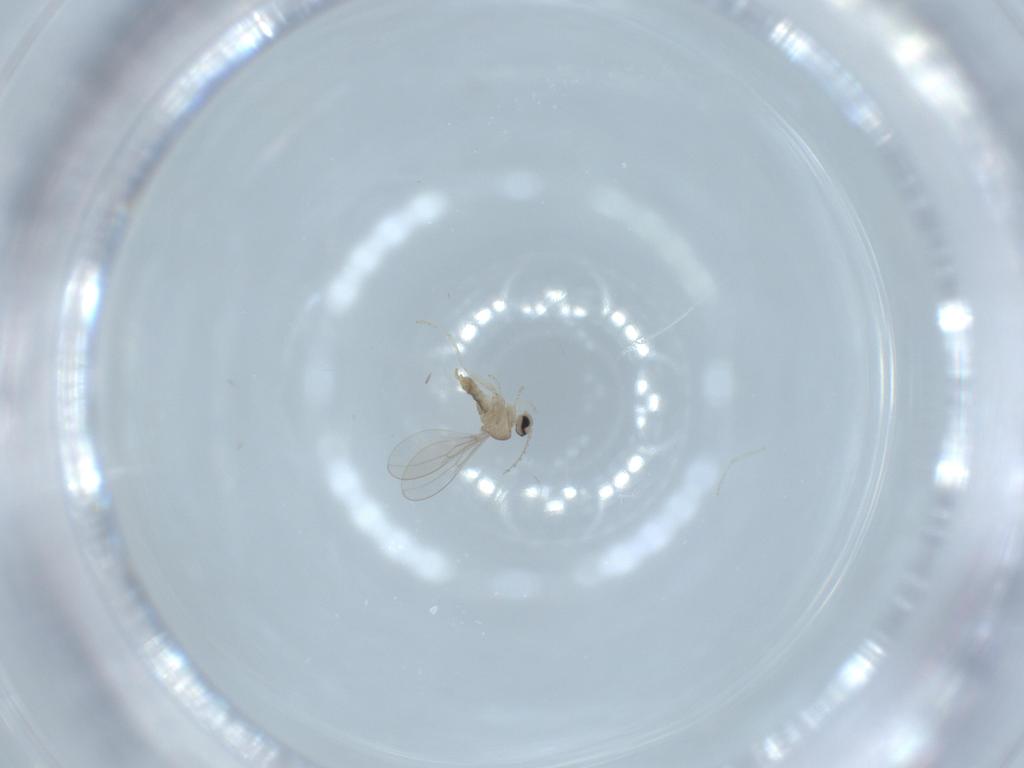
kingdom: Animalia
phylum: Arthropoda
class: Insecta
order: Diptera
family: Cecidomyiidae
